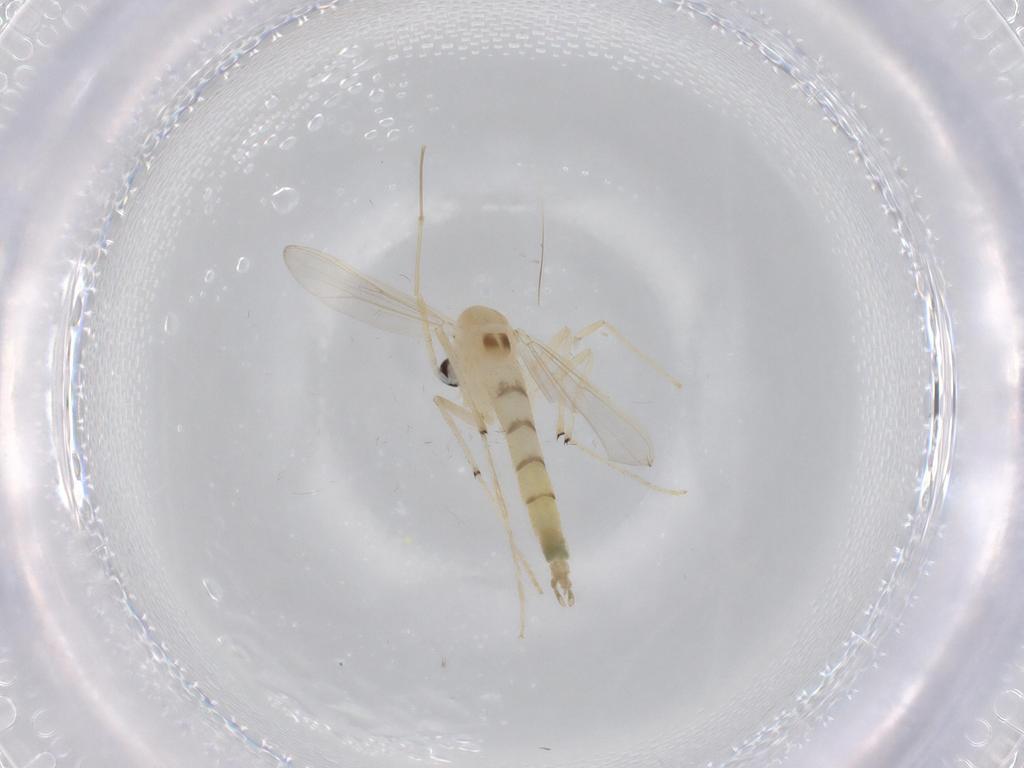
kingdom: Animalia
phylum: Arthropoda
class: Insecta
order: Diptera
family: Chironomidae
